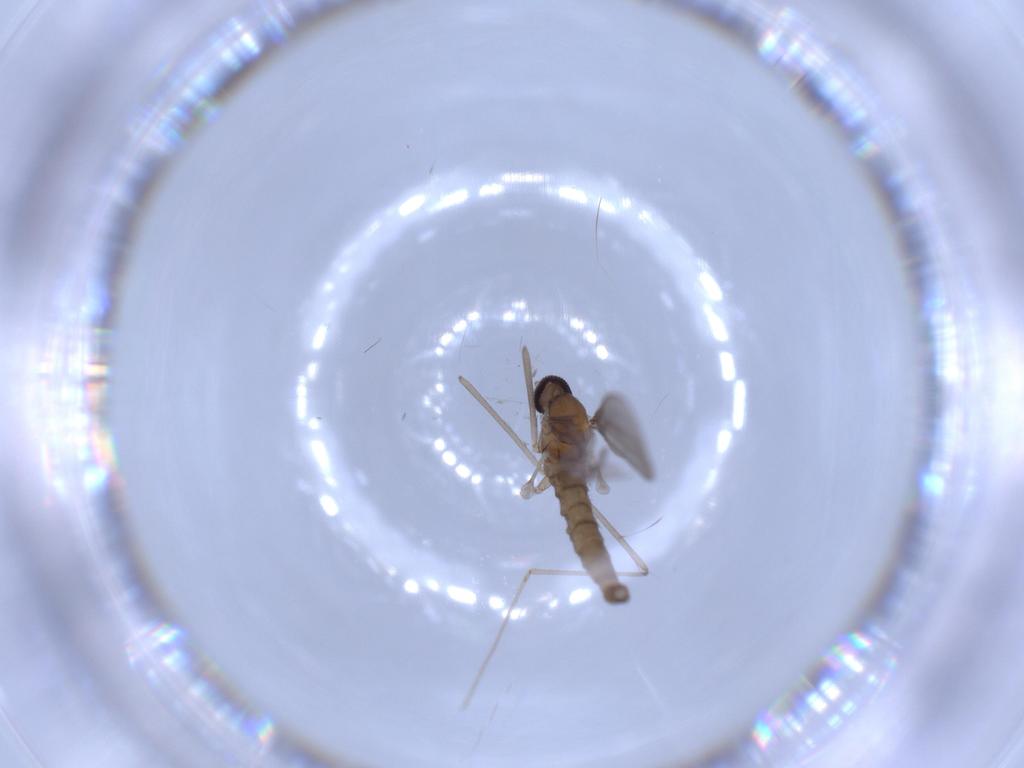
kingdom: Animalia
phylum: Arthropoda
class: Insecta
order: Diptera
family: Cecidomyiidae
